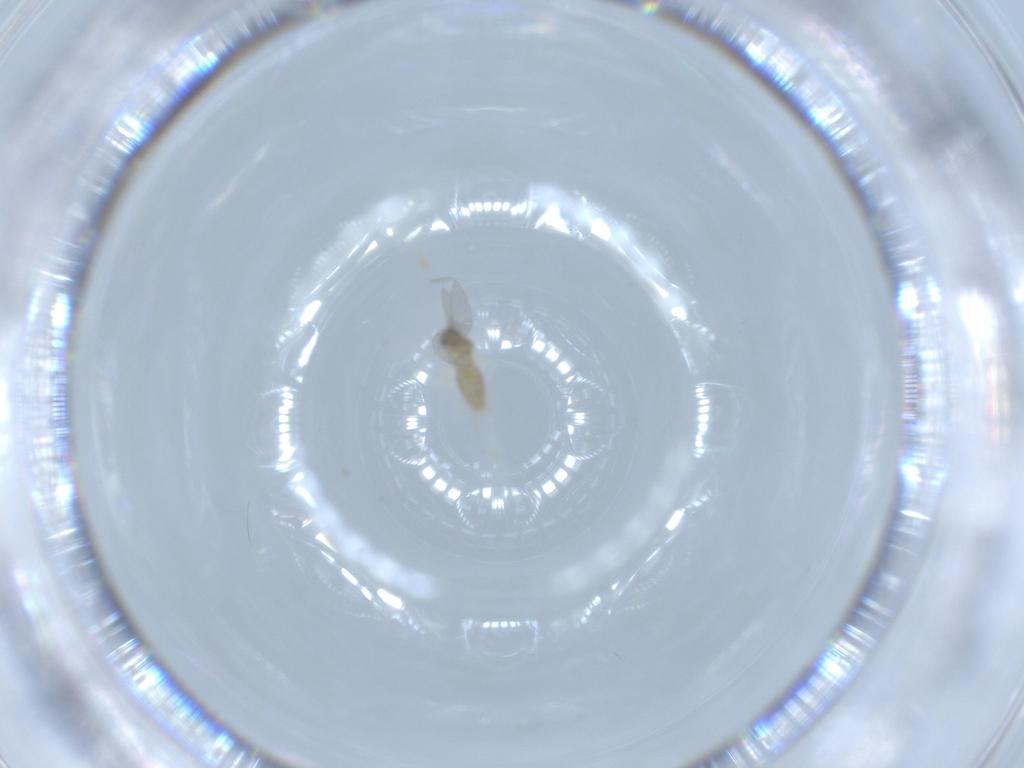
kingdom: Animalia
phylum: Arthropoda
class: Insecta
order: Diptera
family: Cecidomyiidae
